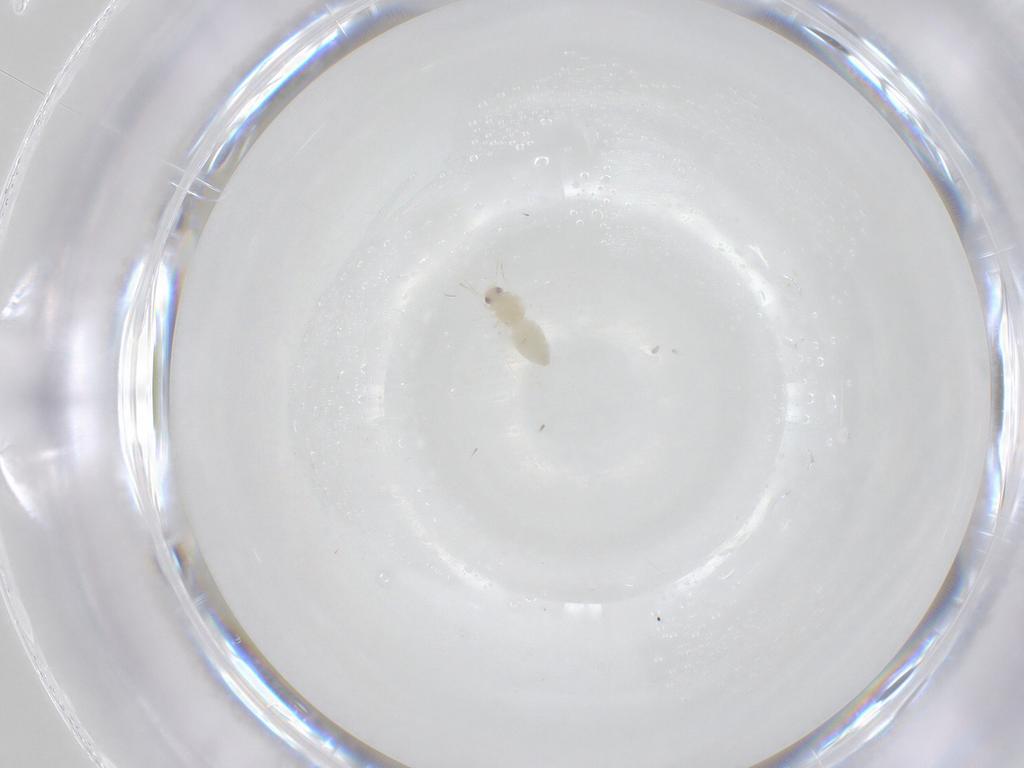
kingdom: Animalia
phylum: Arthropoda
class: Insecta
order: Hemiptera
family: Aleyrodidae
